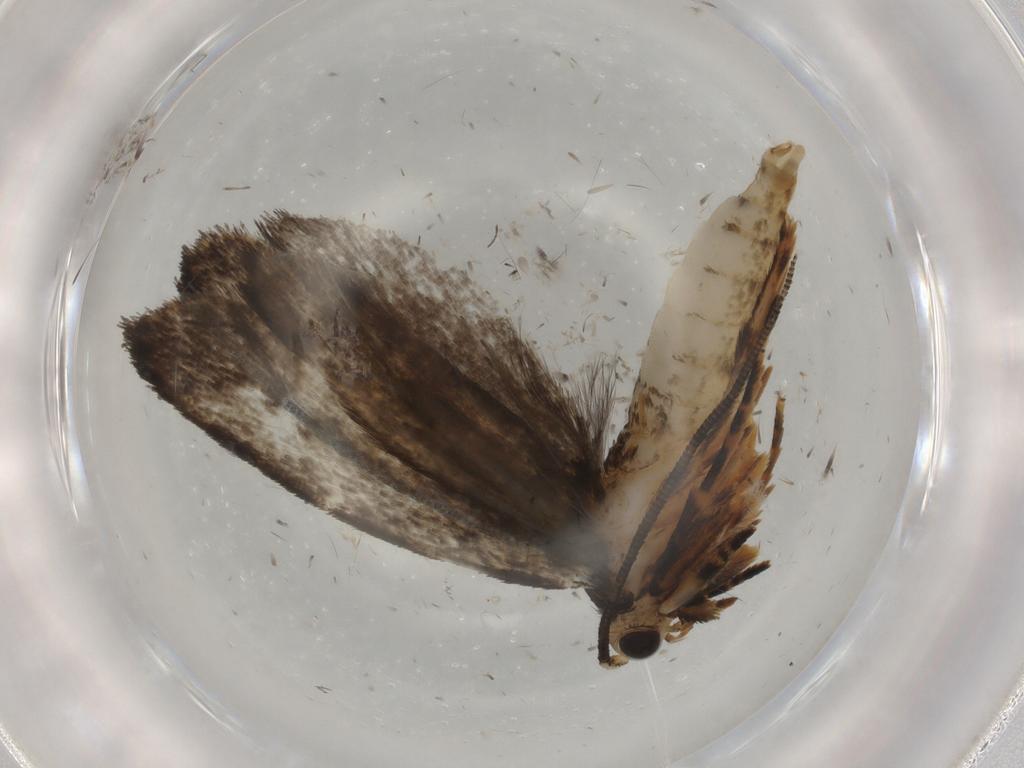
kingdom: Animalia
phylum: Arthropoda
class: Insecta
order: Lepidoptera
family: Tineidae
